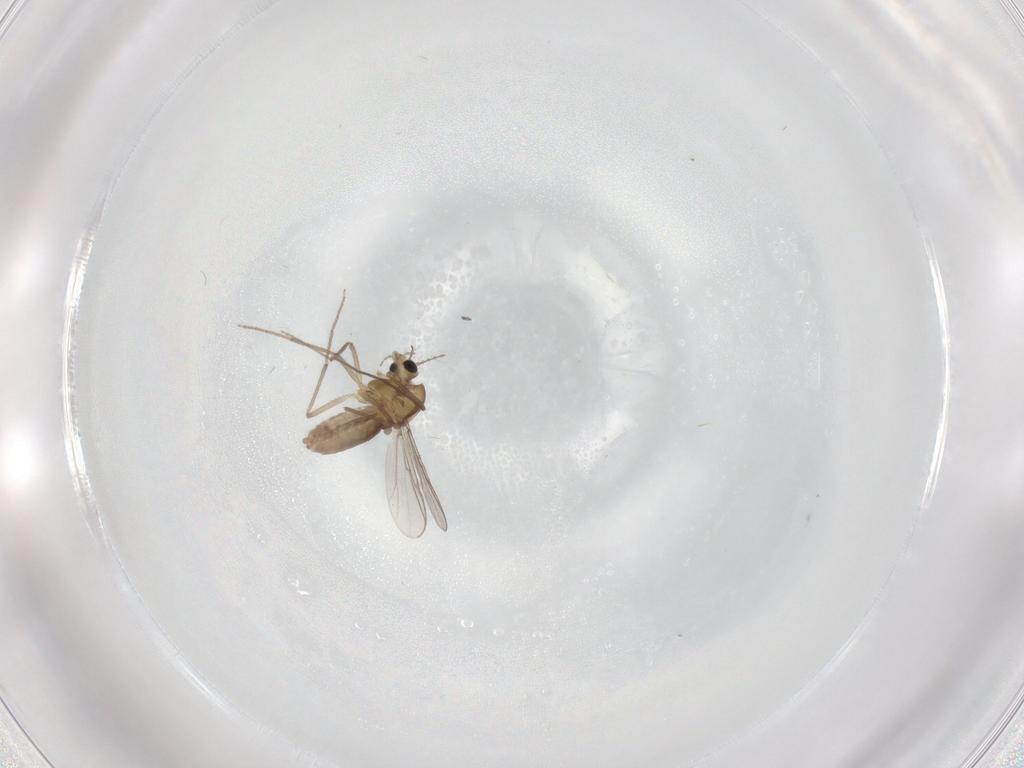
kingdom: Animalia
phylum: Arthropoda
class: Insecta
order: Diptera
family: Chironomidae
